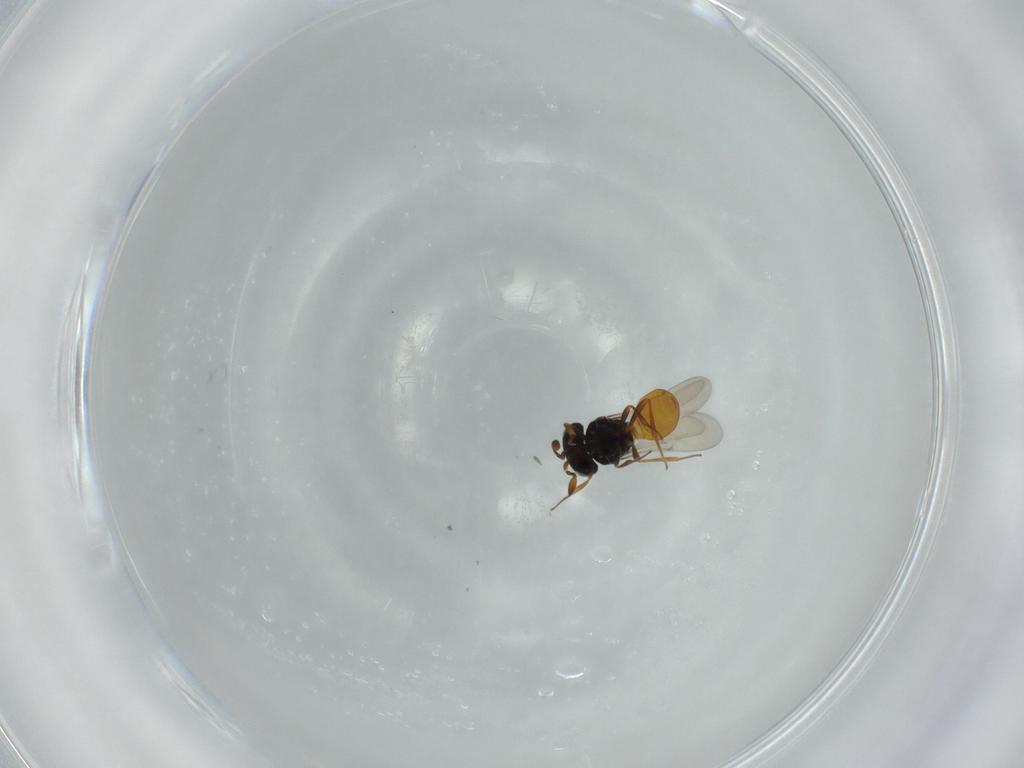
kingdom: Animalia
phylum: Arthropoda
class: Insecta
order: Hymenoptera
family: Scelionidae
